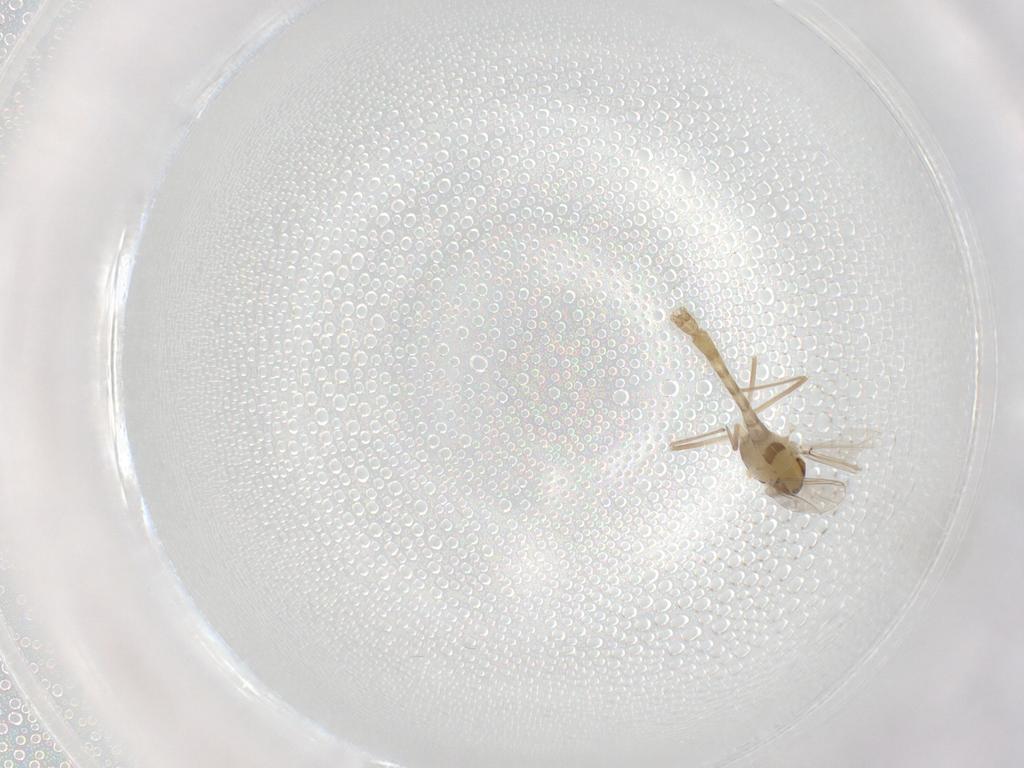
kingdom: Animalia
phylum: Arthropoda
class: Insecta
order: Diptera
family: Chironomidae
